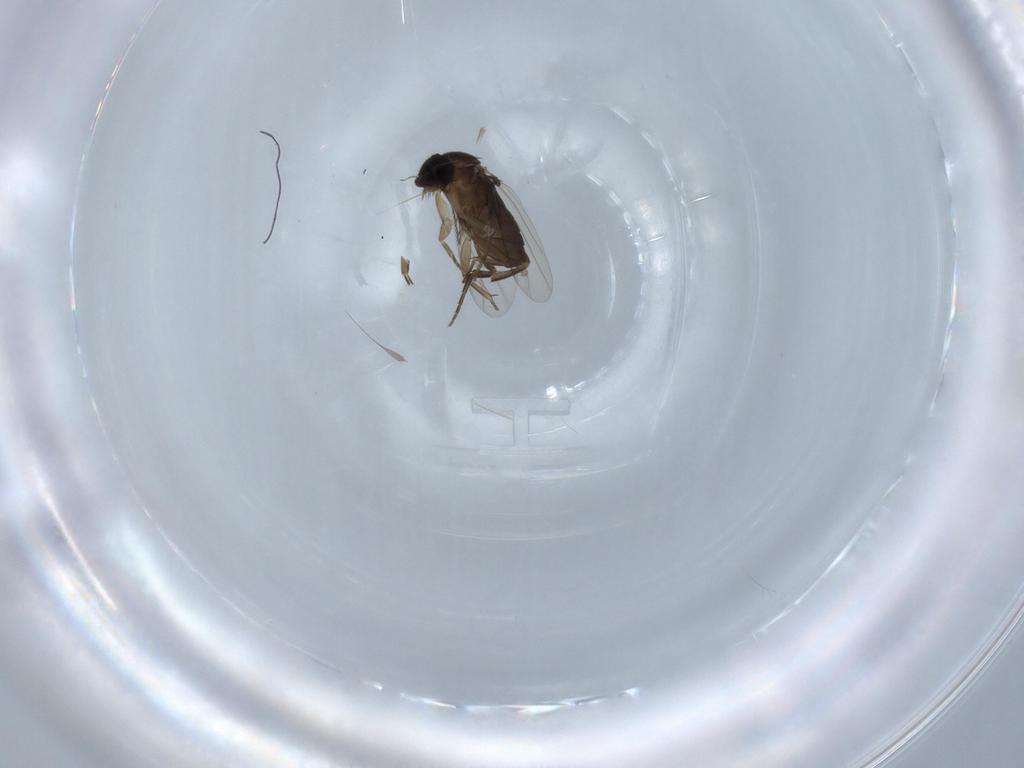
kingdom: Animalia
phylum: Arthropoda
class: Insecta
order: Diptera
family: Phoridae
